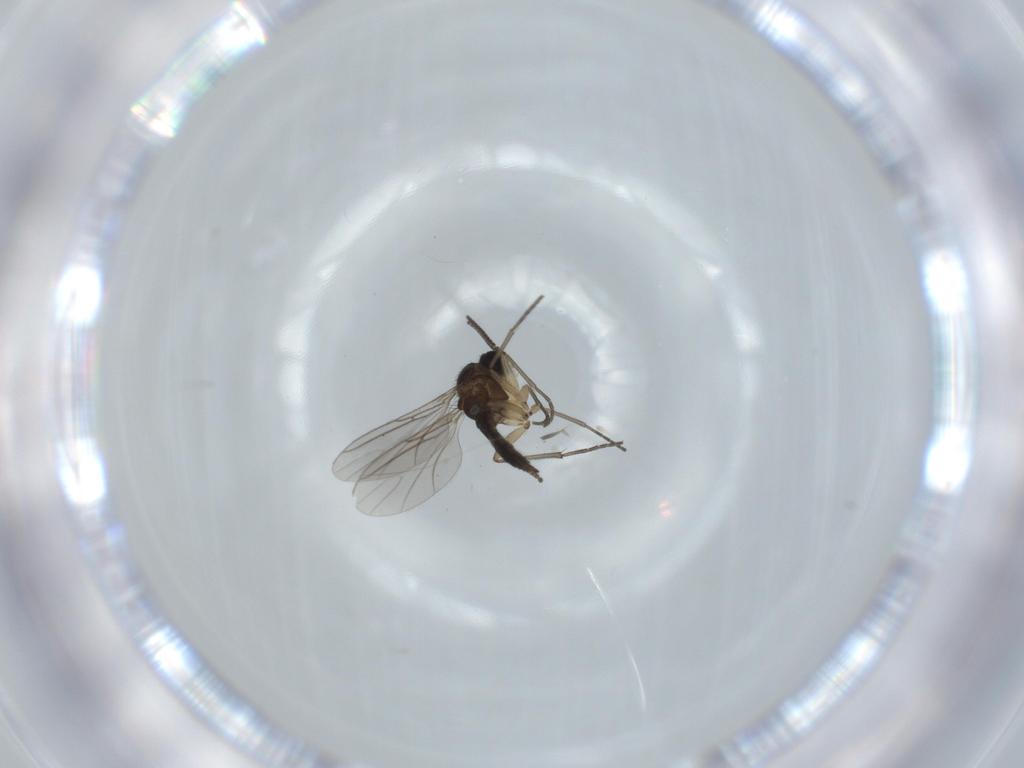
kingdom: Animalia
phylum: Arthropoda
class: Insecta
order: Diptera
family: Sciaridae
